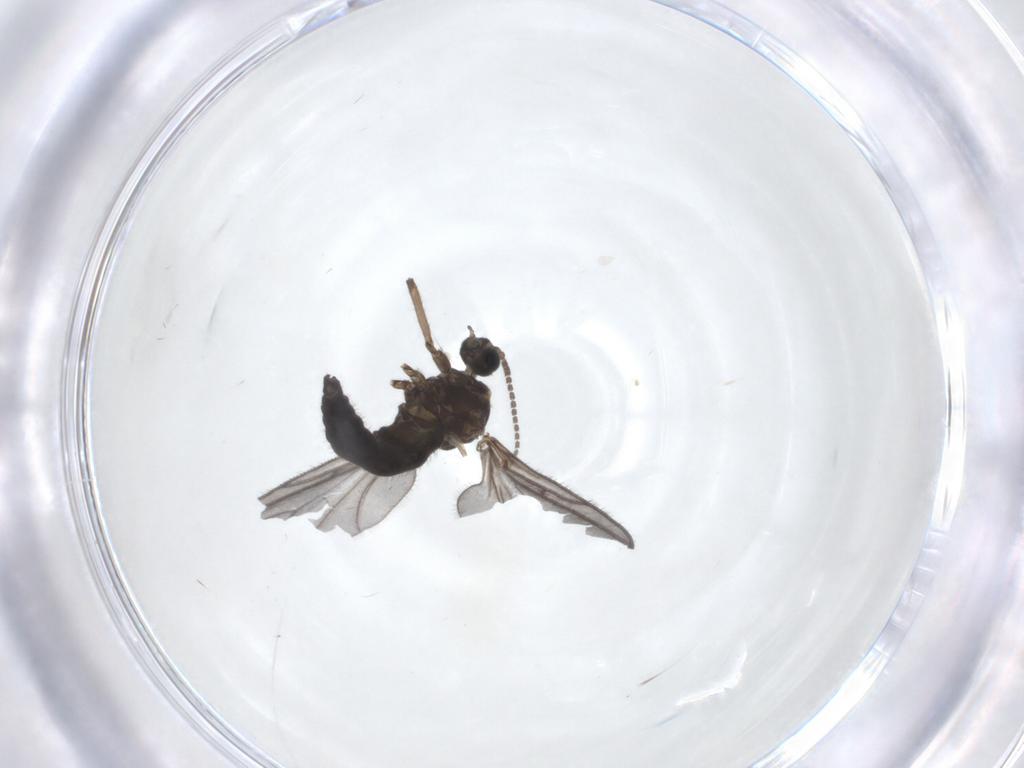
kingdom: Animalia
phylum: Arthropoda
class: Insecta
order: Diptera
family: Sciaridae
